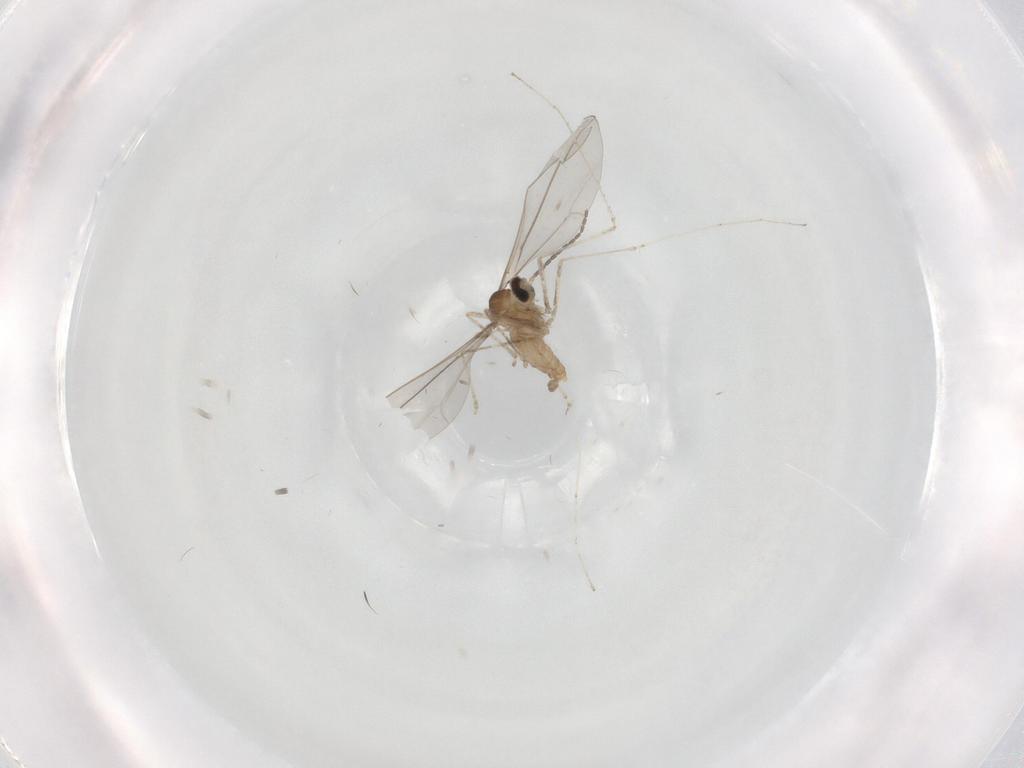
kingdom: Animalia
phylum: Arthropoda
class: Insecta
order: Diptera
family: Cecidomyiidae
